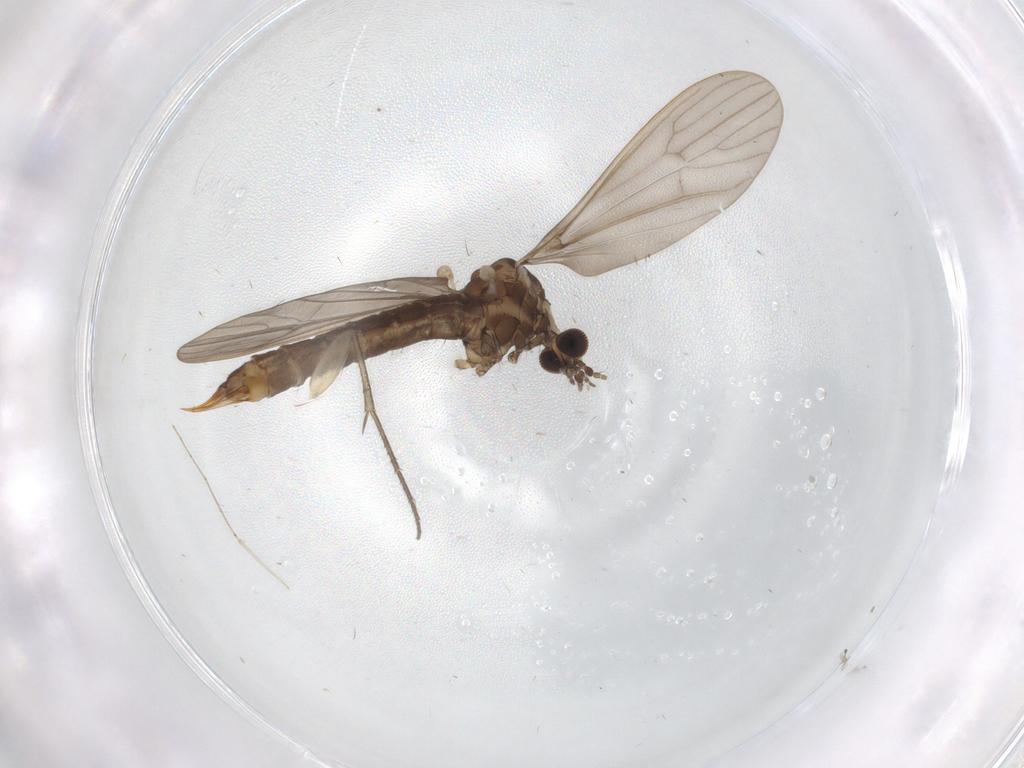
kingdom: Animalia
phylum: Arthropoda
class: Insecta
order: Diptera
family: Limoniidae
